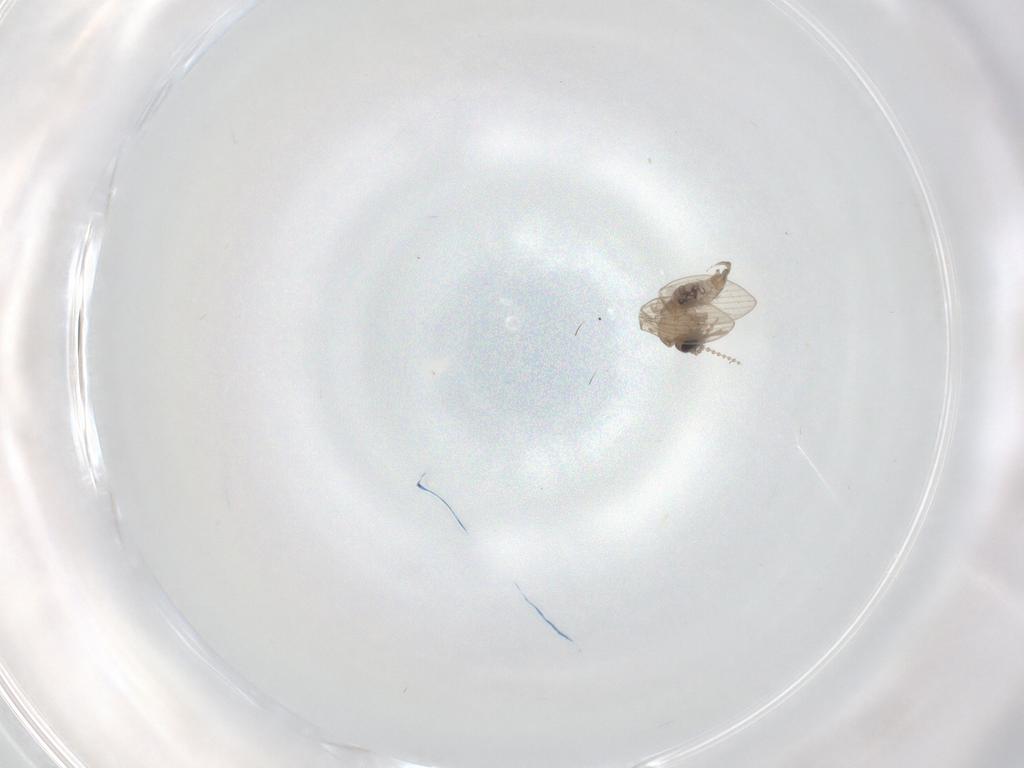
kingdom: Animalia
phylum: Arthropoda
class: Insecta
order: Diptera
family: Psychodidae
